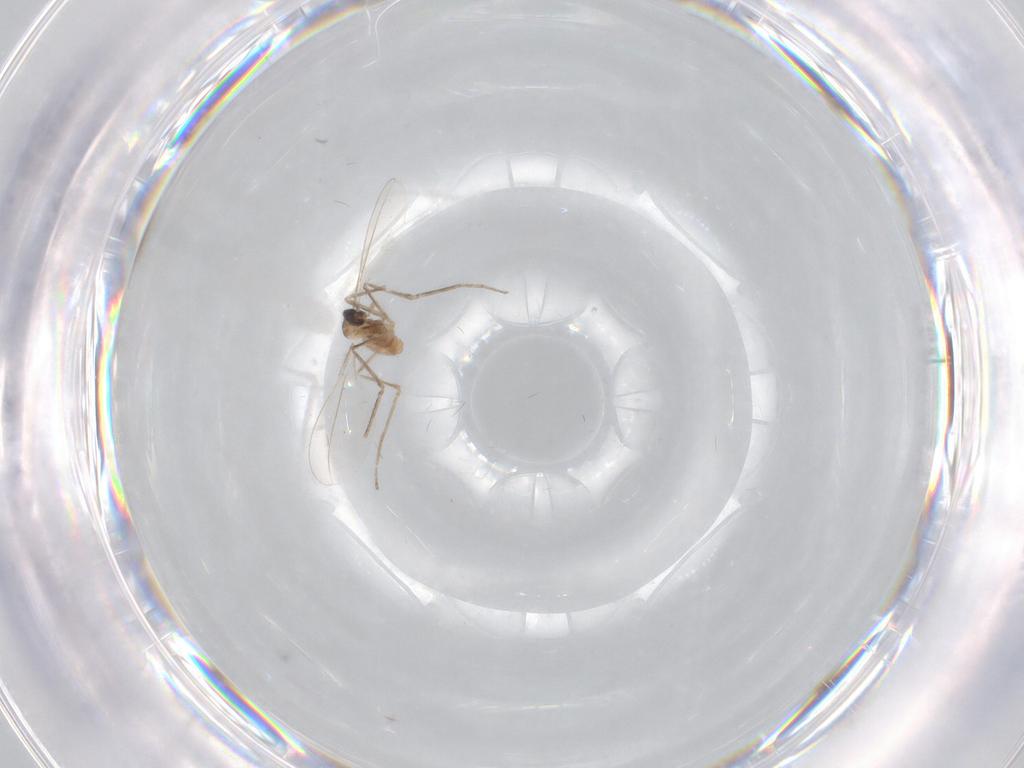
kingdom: Animalia
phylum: Arthropoda
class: Insecta
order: Diptera
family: Cecidomyiidae
